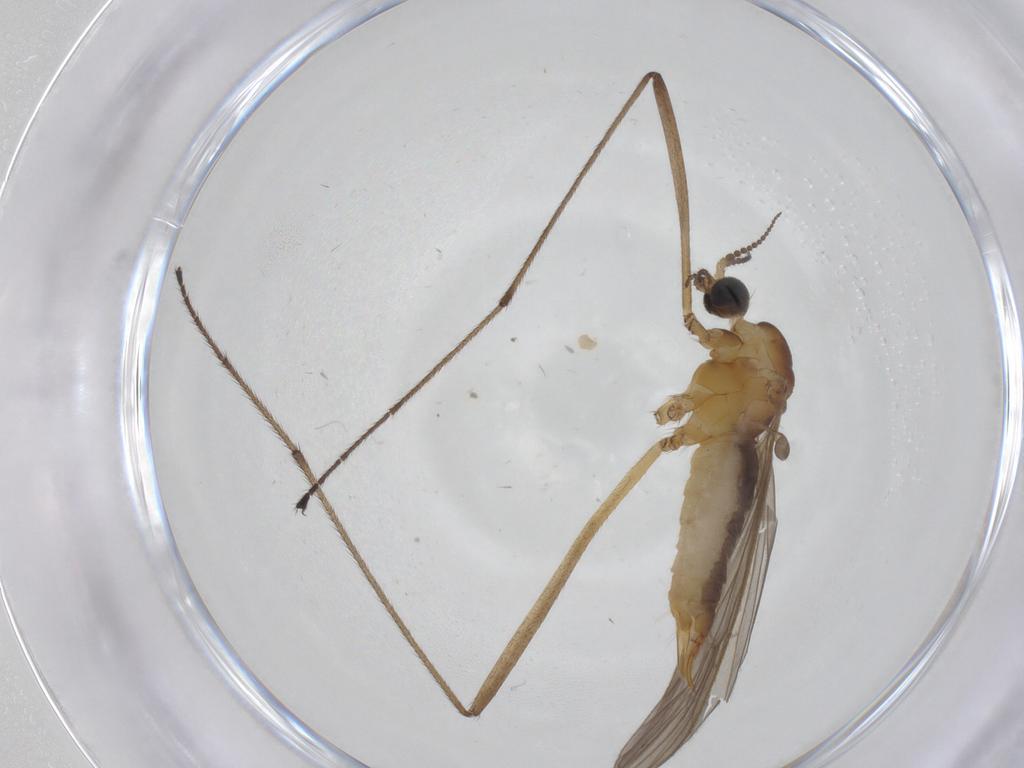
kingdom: Animalia
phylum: Arthropoda
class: Insecta
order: Diptera
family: Limoniidae
